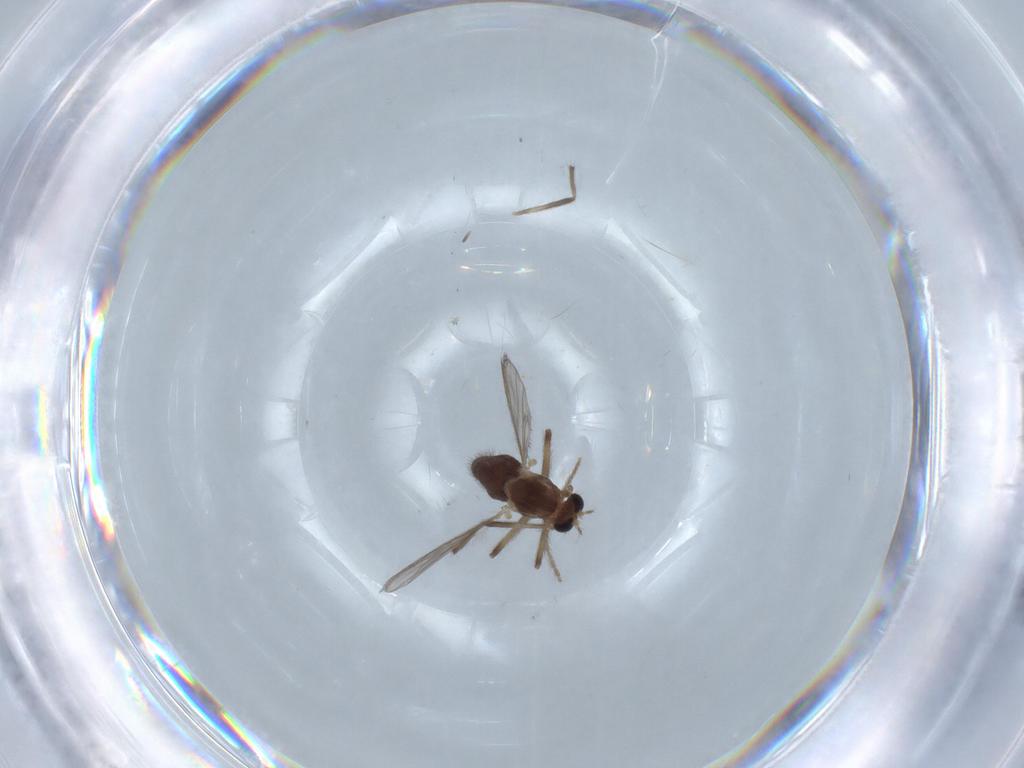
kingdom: Animalia
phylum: Arthropoda
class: Insecta
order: Diptera
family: Chironomidae
